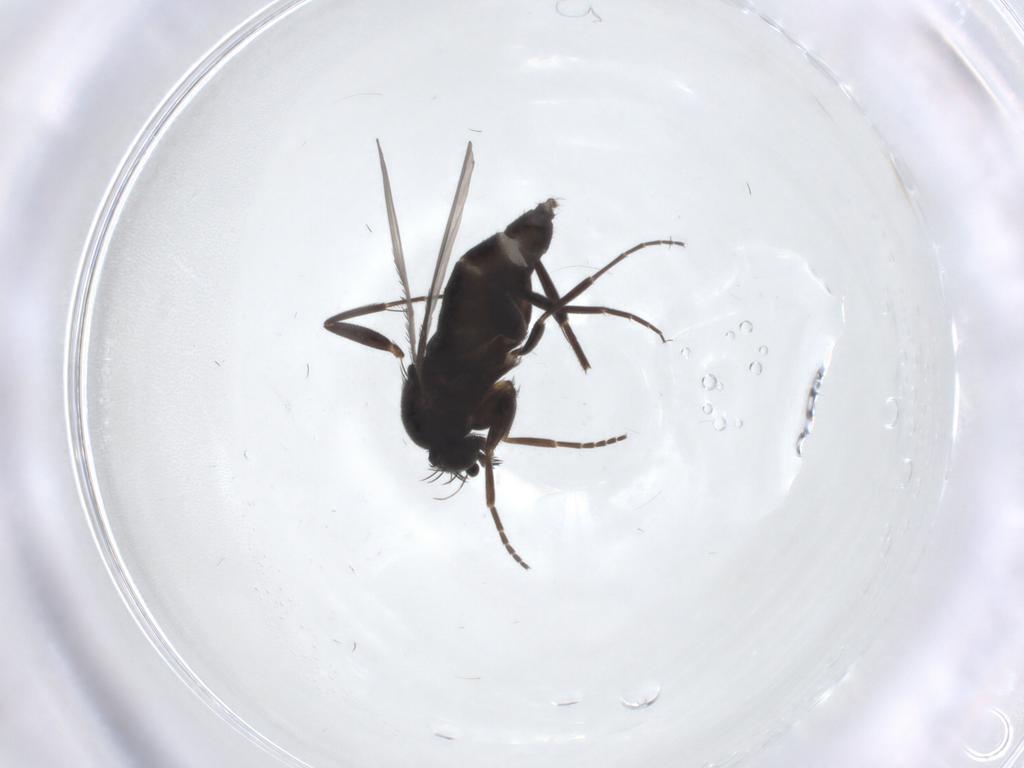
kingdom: Animalia
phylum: Arthropoda
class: Insecta
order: Diptera
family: Phoridae
